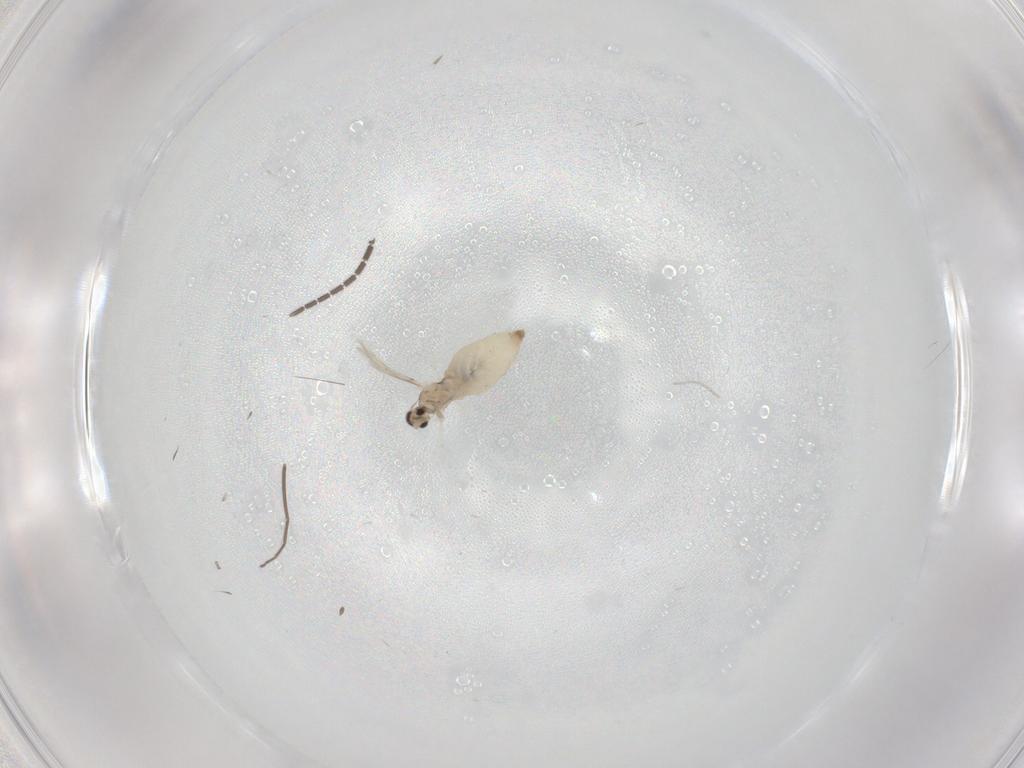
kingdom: Animalia
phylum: Arthropoda
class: Insecta
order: Diptera
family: Cecidomyiidae
